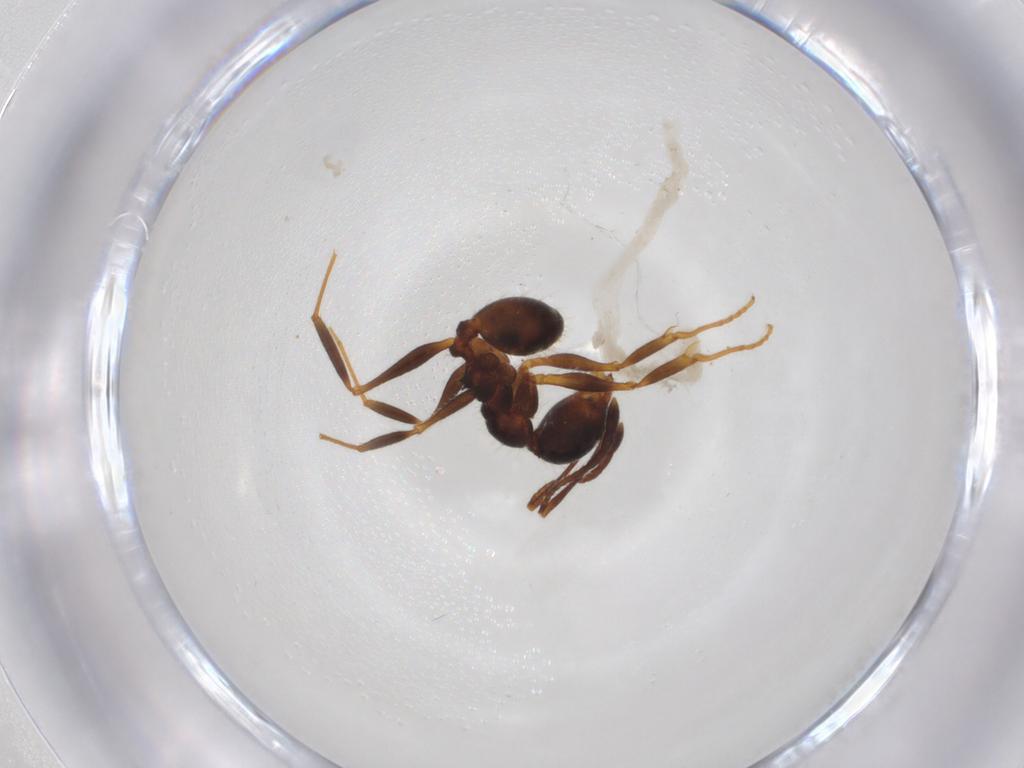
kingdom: Animalia
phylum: Arthropoda
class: Insecta
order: Hymenoptera
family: Formicidae
